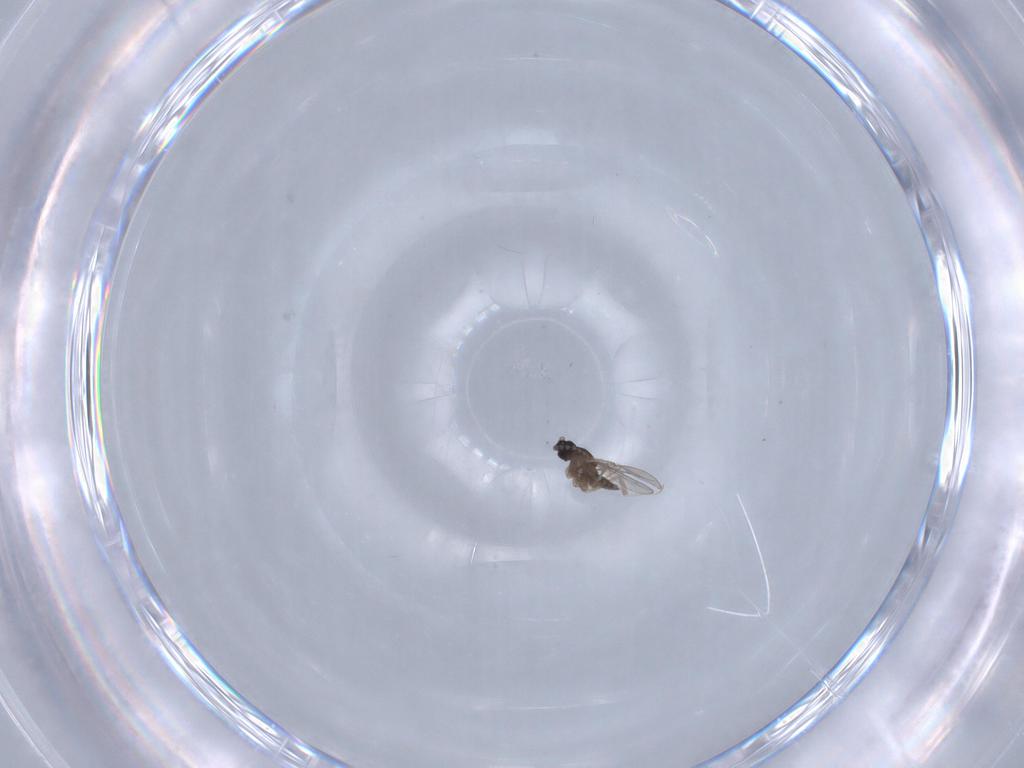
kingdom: Animalia
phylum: Arthropoda
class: Insecta
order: Diptera
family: Cecidomyiidae
